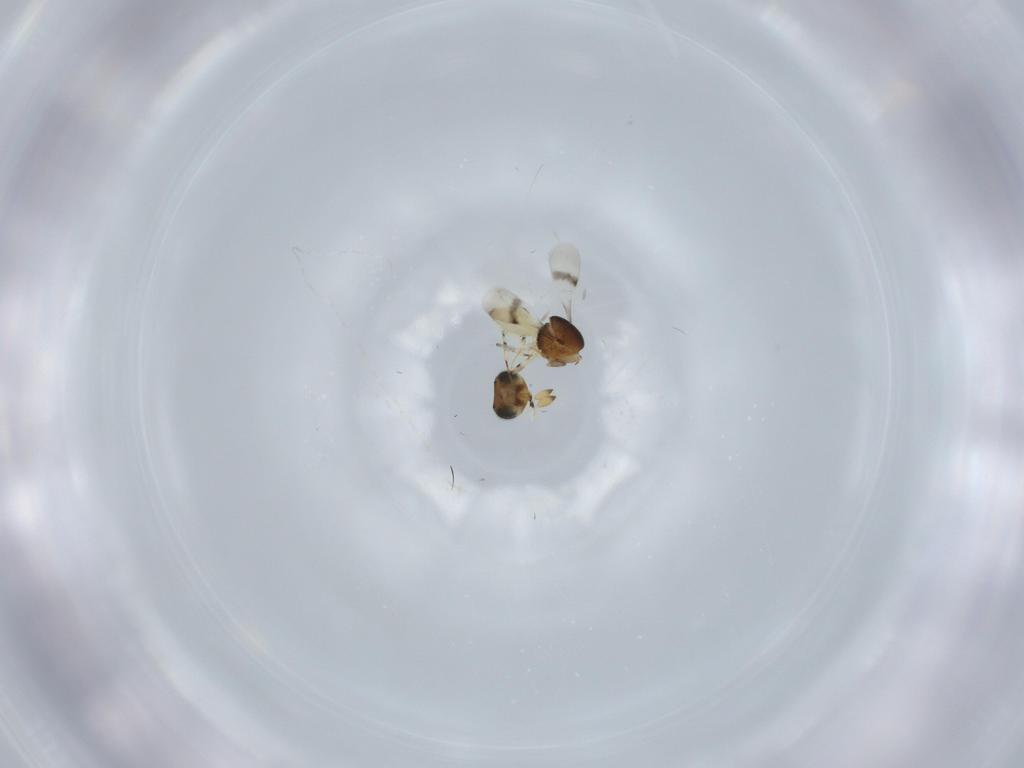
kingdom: Animalia
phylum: Arthropoda
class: Insecta
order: Hymenoptera
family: Scelionidae
